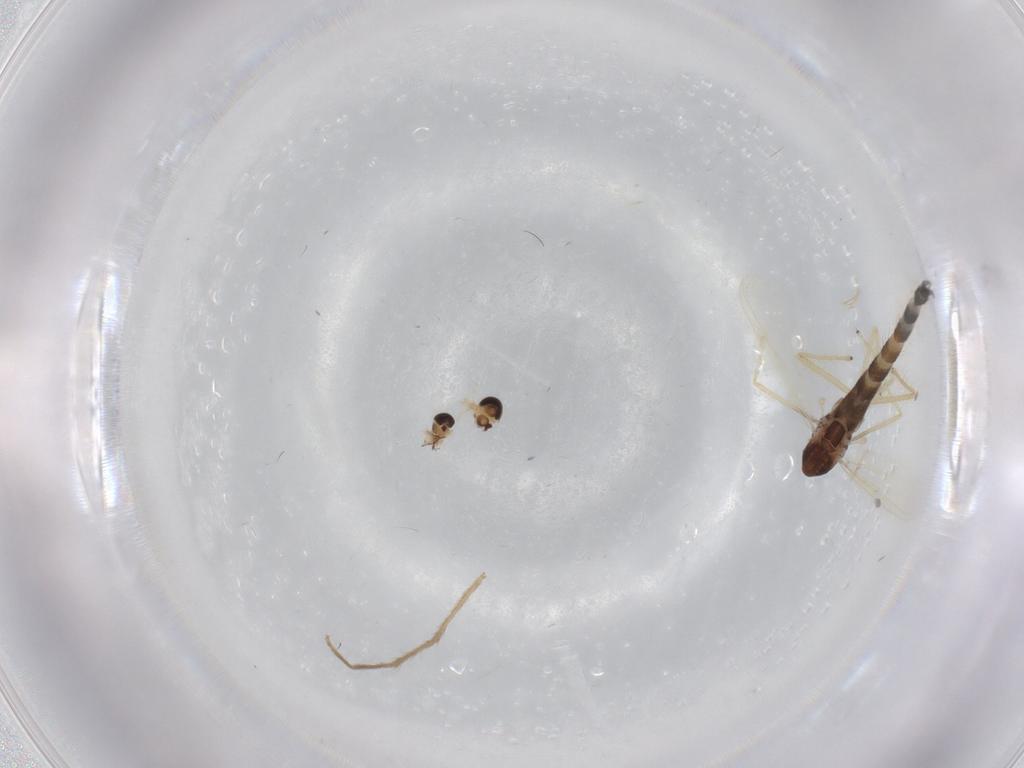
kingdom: Animalia
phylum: Arthropoda
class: Insecta
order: Diptera
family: Chironomidae
